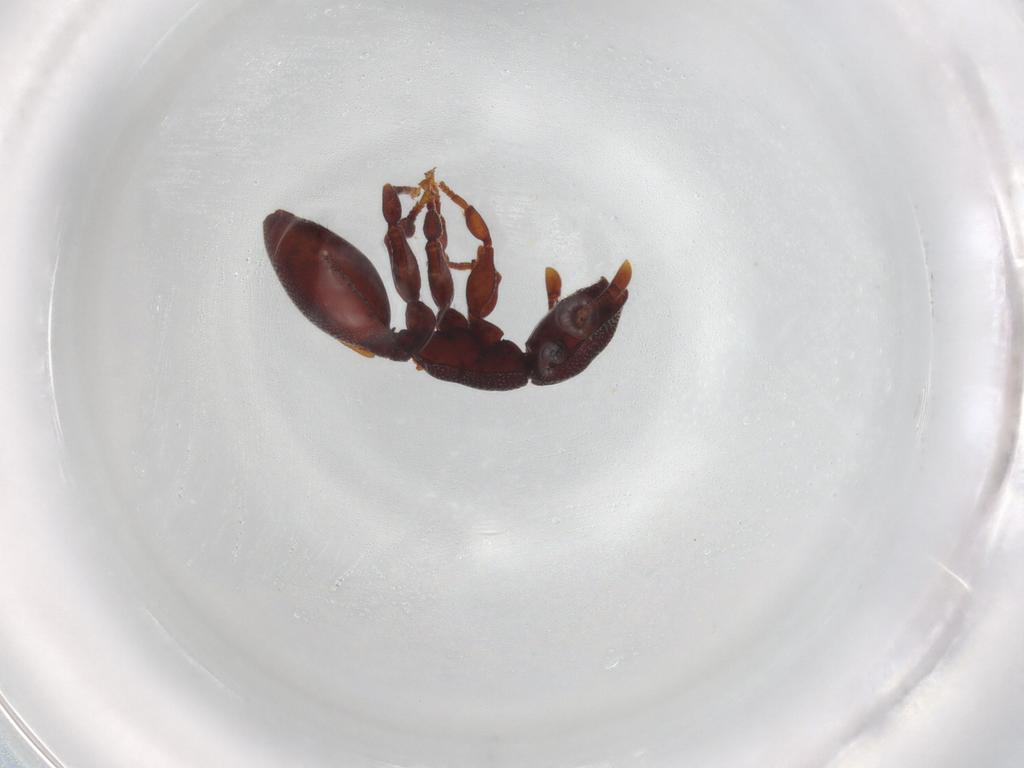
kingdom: Animalia
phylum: Arthropoda
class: Insecta
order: Hymenoptera
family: Formicidae
